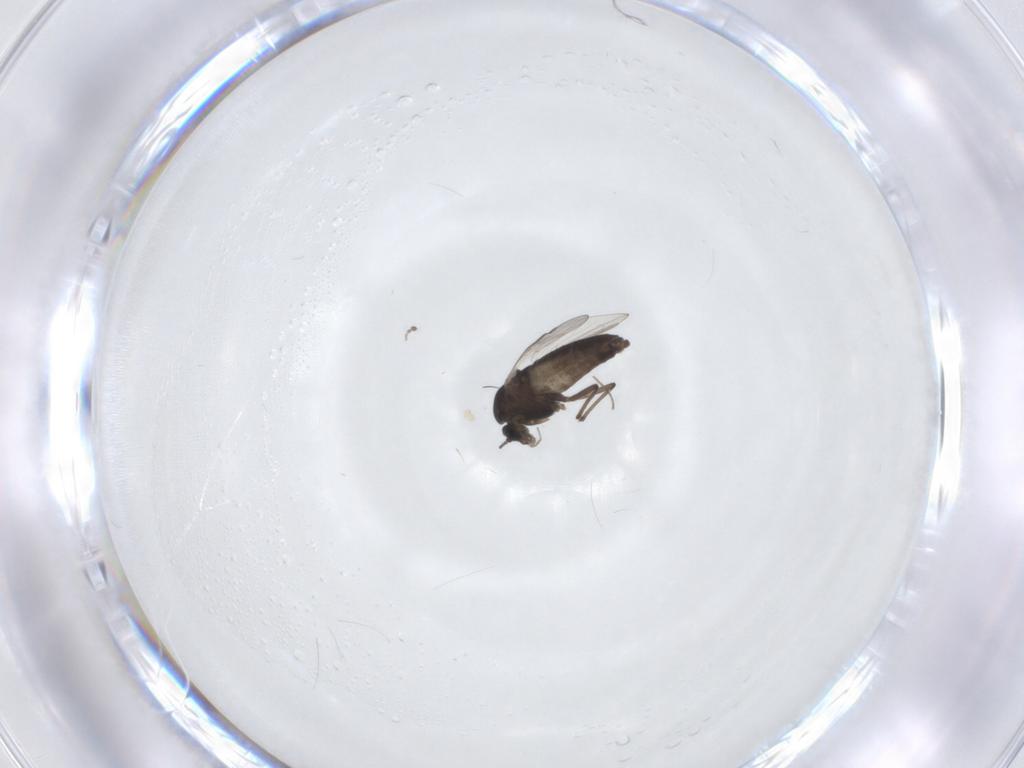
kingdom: Animalia
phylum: Arthropoda
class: Insecta
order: Diptera
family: Chironomidae
